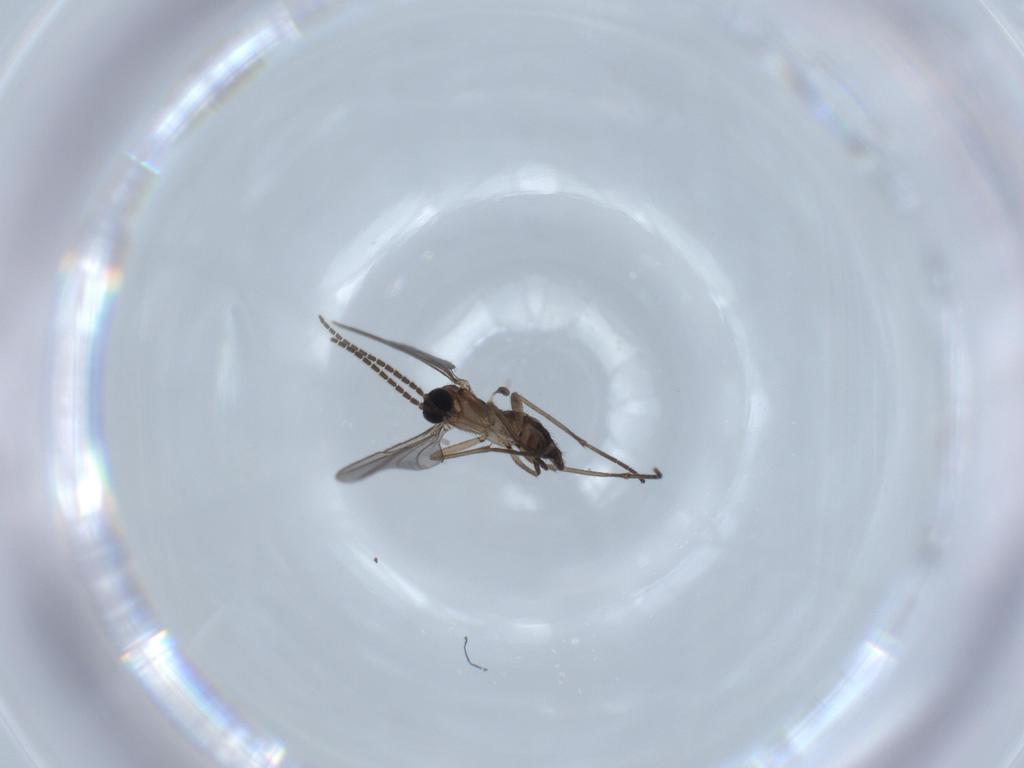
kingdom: Animalia
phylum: Arthropoda
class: Insecta
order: Diptera
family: Sciaridae
